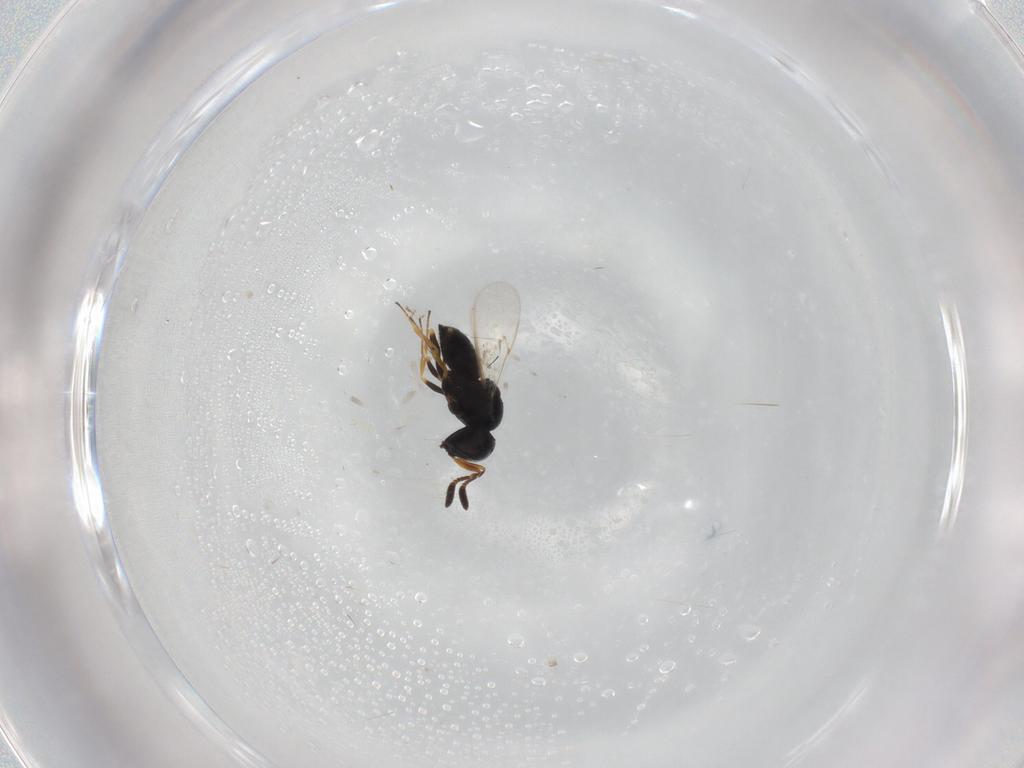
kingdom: Animalia
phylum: Arthropoda
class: Insecta
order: Coleoptera
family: Curculionidae
